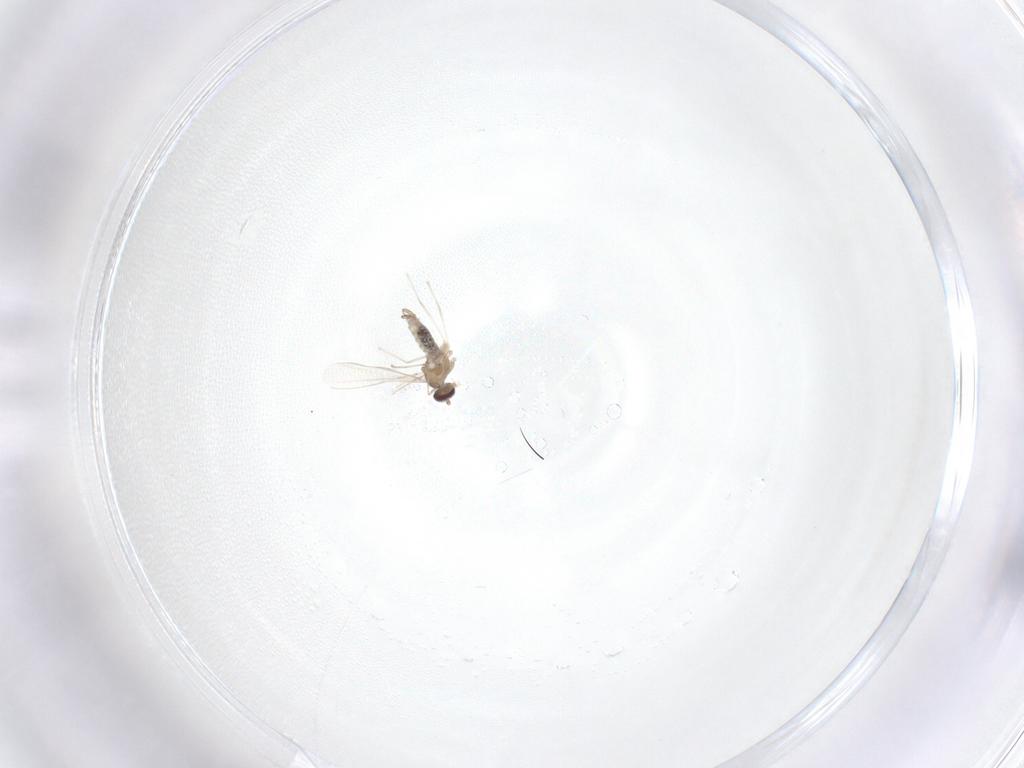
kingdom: Animalia
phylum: Arthropoda
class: Insecta
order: Diptera
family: Cecidomyiidae
